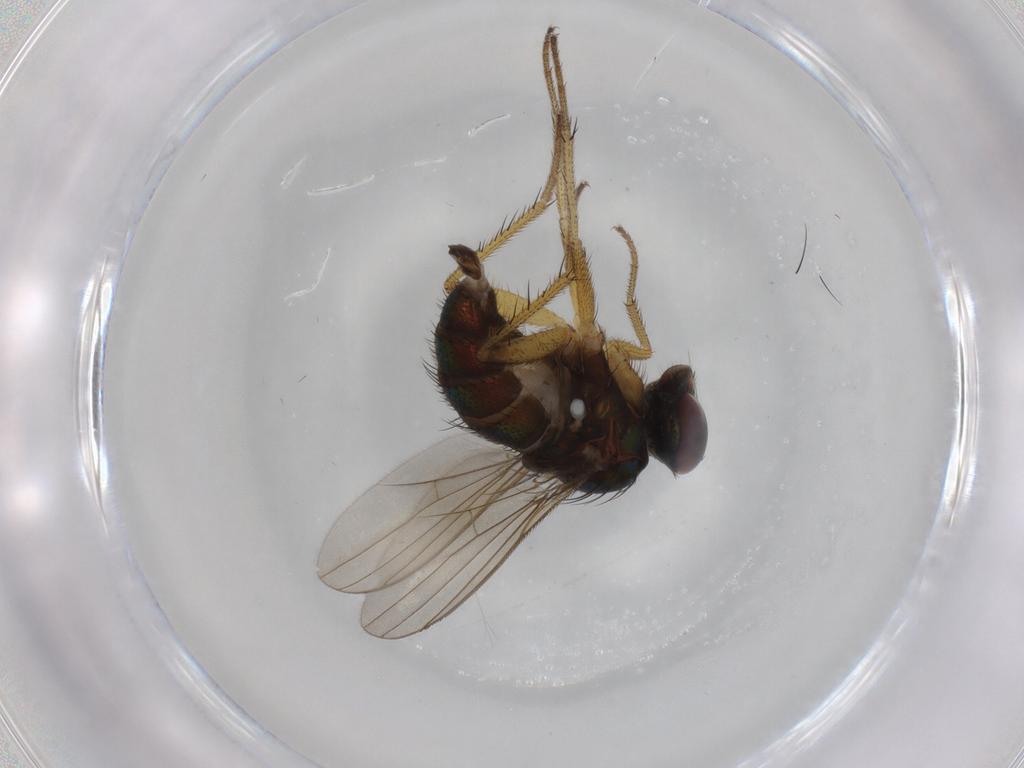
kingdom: Animalia
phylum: Arthropoda
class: Insecta
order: Diptera
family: Dolichopodidae
